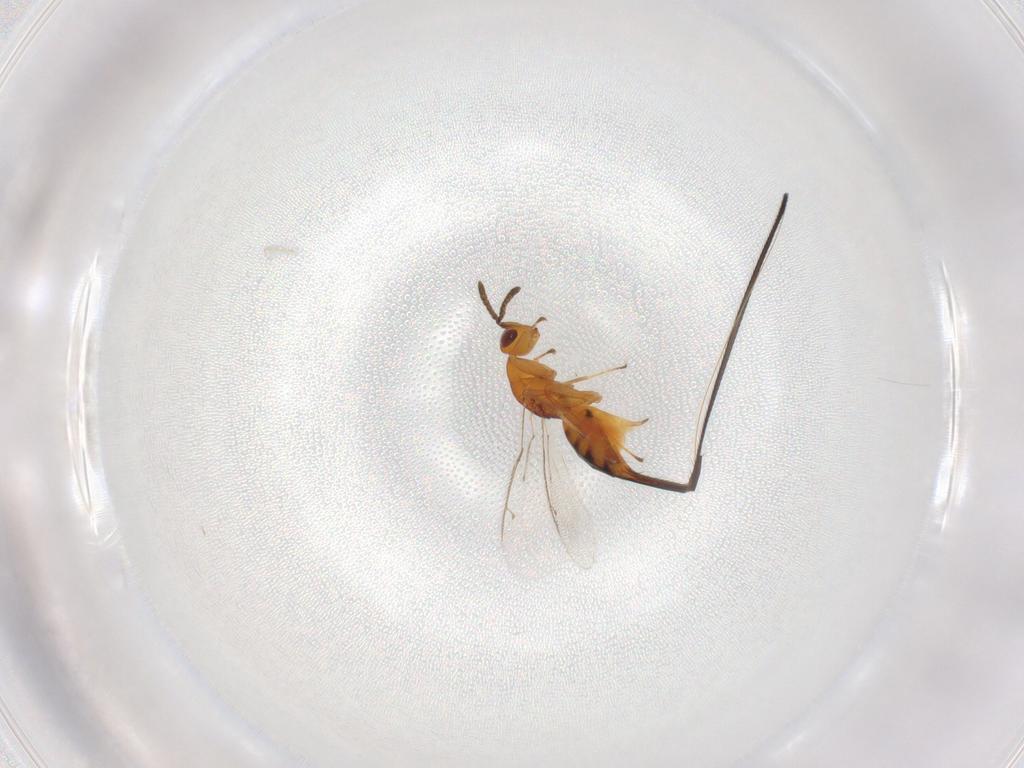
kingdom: Animalia
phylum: Arthropoda
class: Insecta
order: Hymenoptera
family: Pteromalidae
